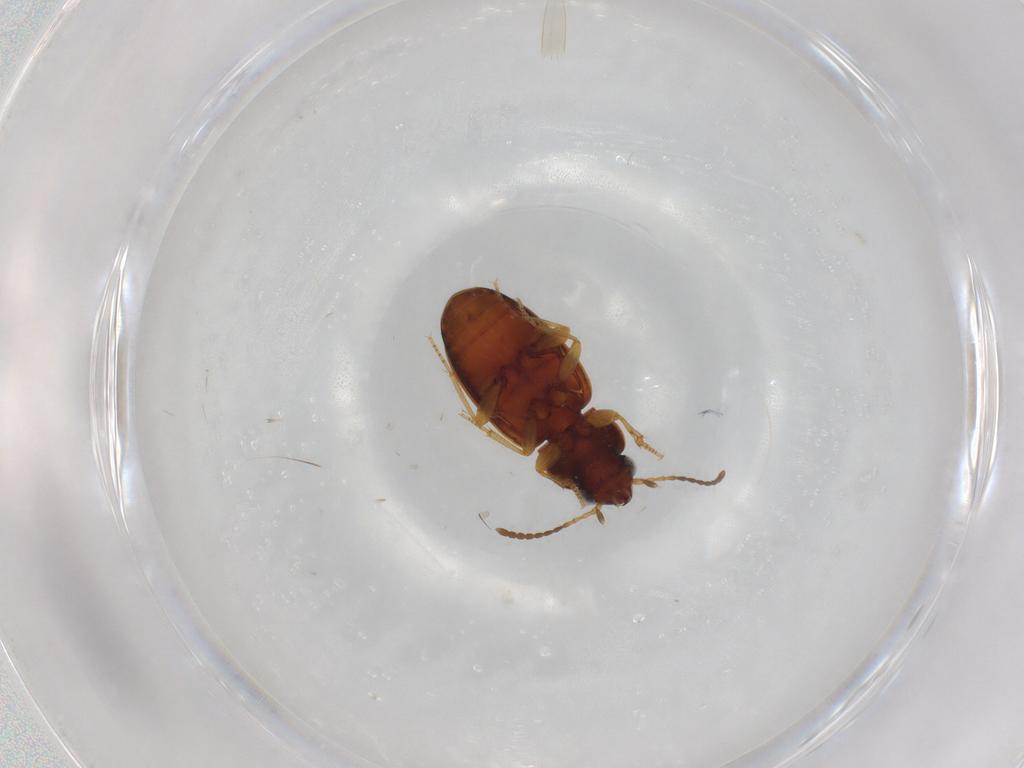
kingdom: Animalia
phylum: Arthropoda
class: Insecta
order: Coleoptera
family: Carabidae
